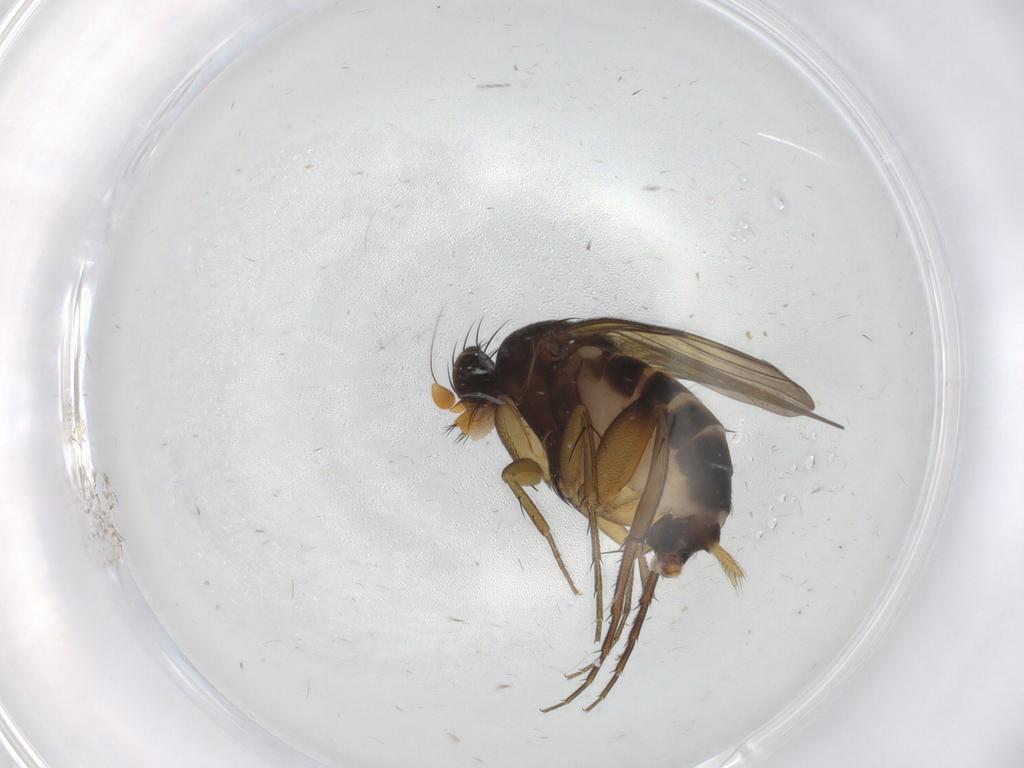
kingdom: Animalia
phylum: Arthropoda
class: Insecta
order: Diptera
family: Phoridae
